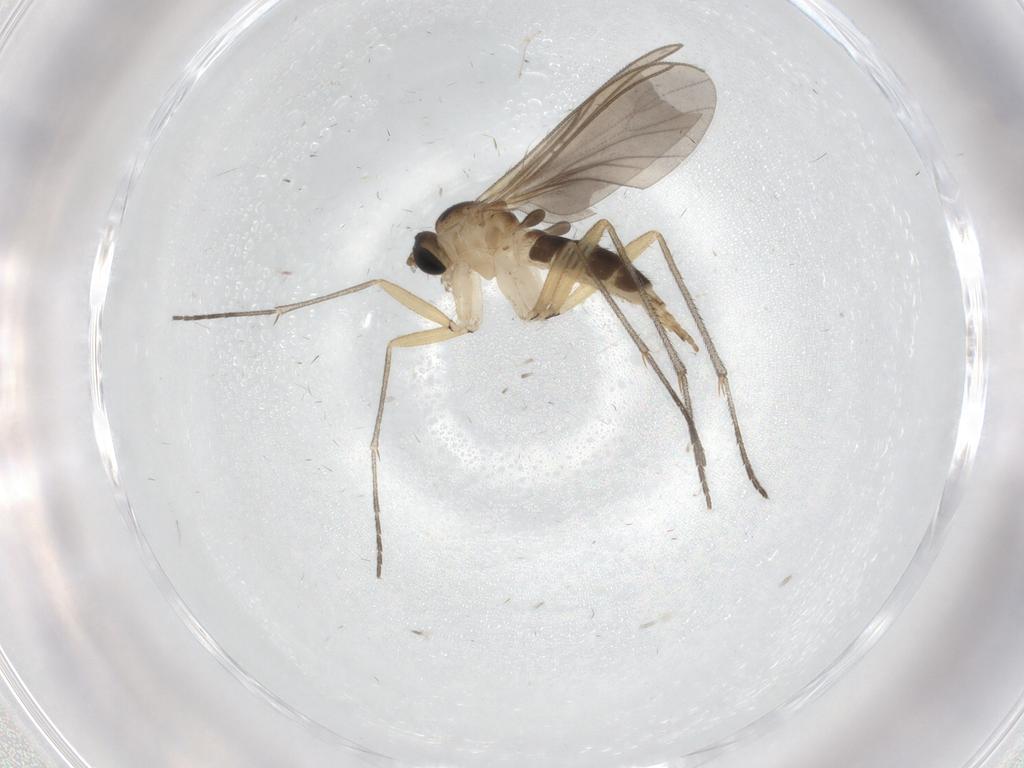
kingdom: Animalia
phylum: Arthropoda
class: Insecta
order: Diptera
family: Sciaridae
